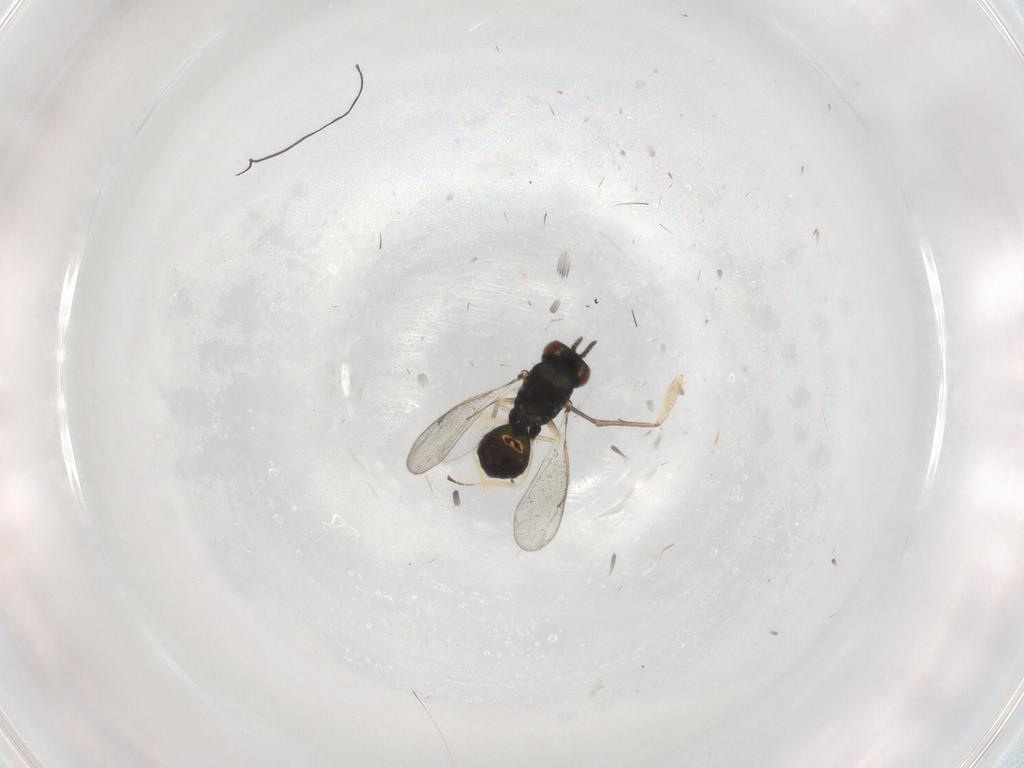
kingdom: Animalia
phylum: Arthropoda
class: Insecta
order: Hymenoptera
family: Eulophidae
